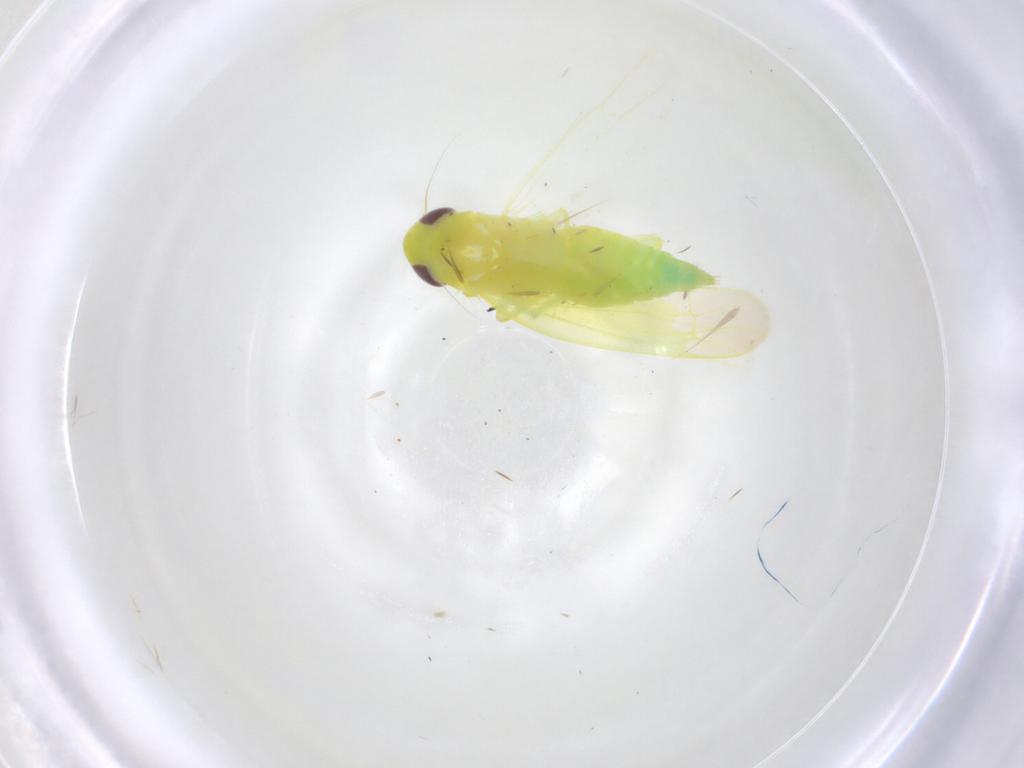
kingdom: Animalia
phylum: Arthropoda
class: Insecta
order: Hemiptera
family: Cicadellidae
